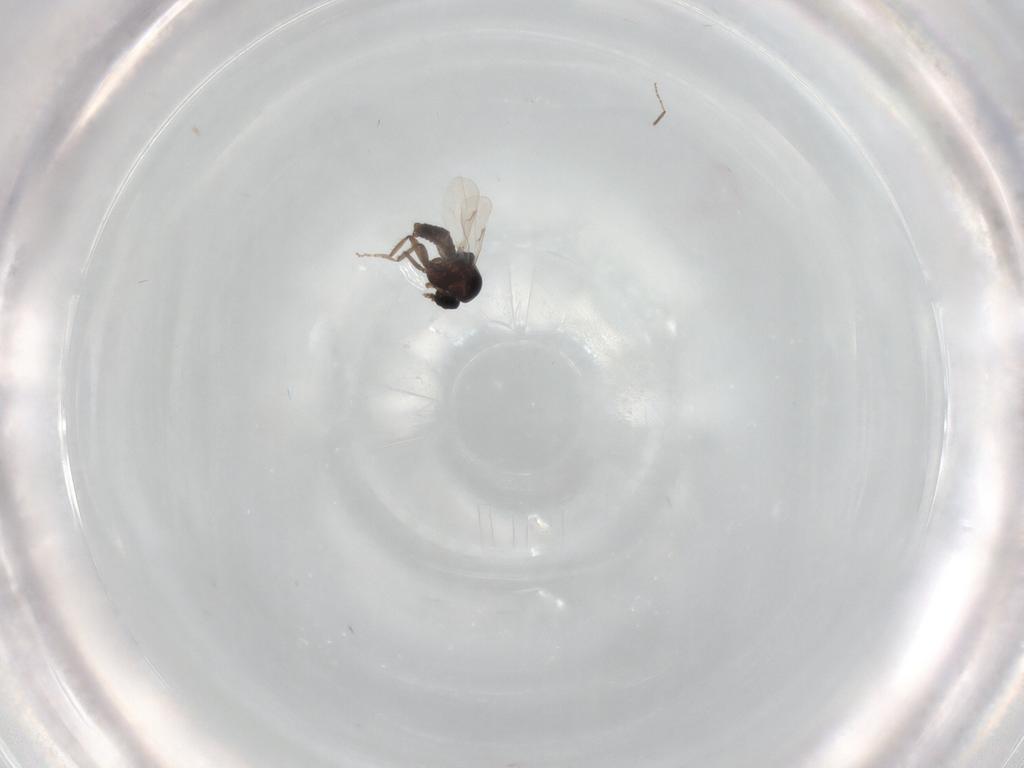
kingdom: Animalia
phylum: Arthropoda
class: Insecta
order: Diptera
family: Ceratopogonidae
